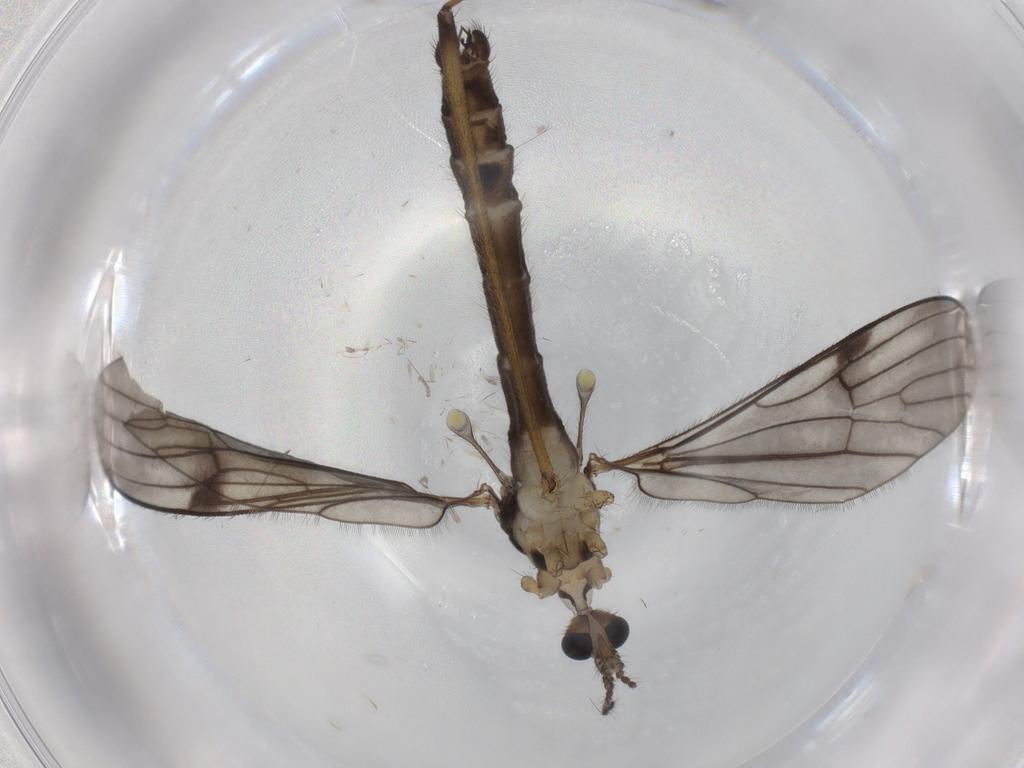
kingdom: Animalia
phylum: Arthropoda
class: Insecta
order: Diptera
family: Limoniidae
